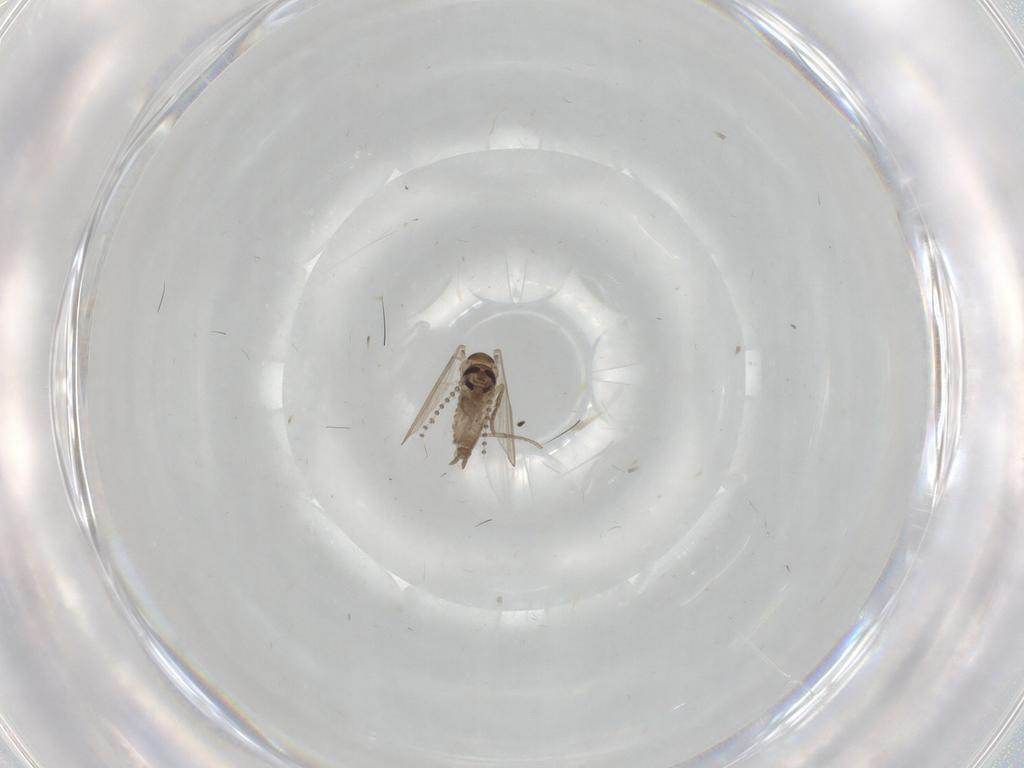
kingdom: Animalia
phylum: Arthropoda
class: Insecta
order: Diptera
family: Psychodidae
